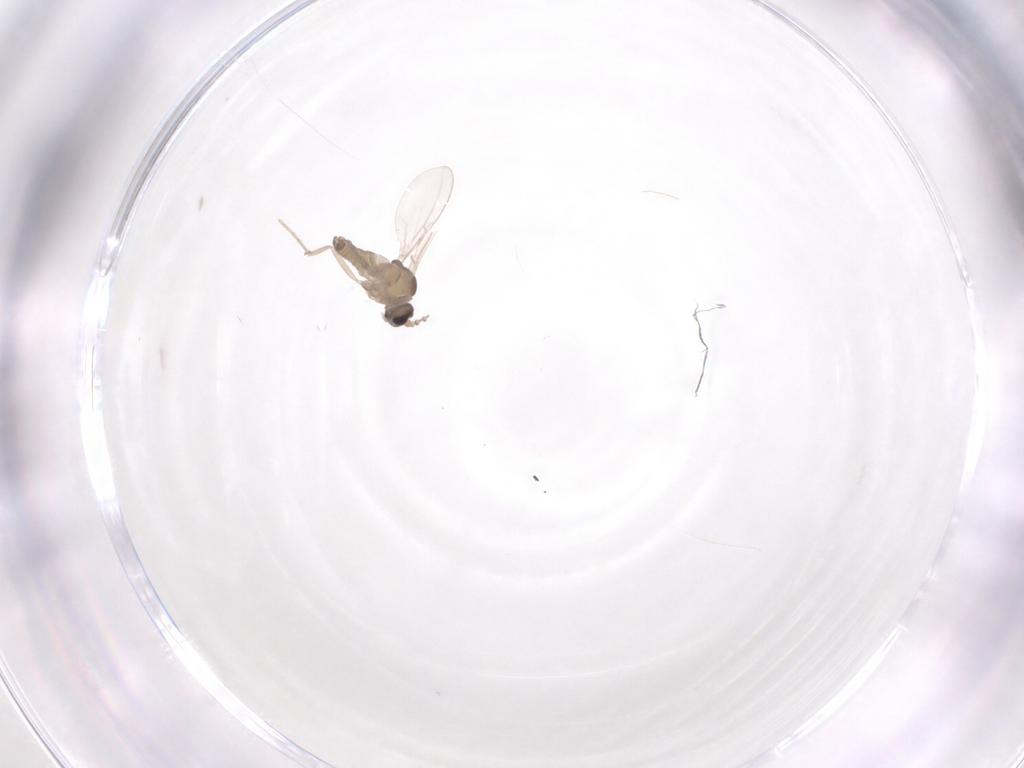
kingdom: Animalia
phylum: Arthropoda
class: Insecta
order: Diptera
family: Cecidomyiidae
